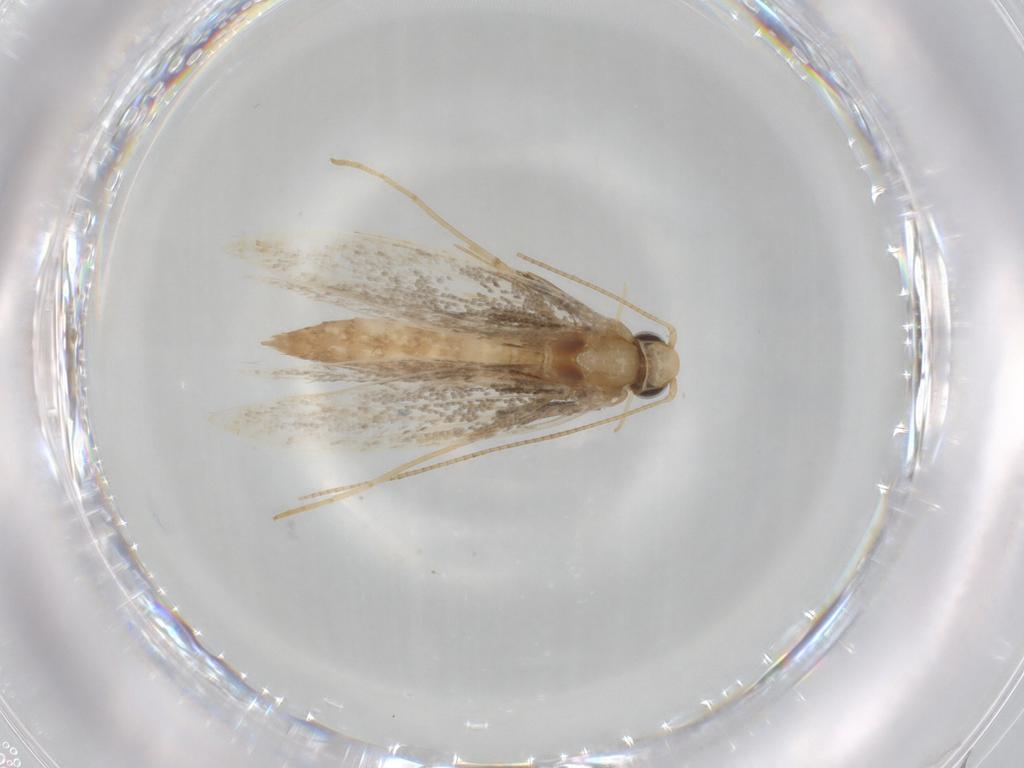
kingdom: Animalia
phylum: Arthropoda
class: Insecta
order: Lepidoptera
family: Gracillariidae
